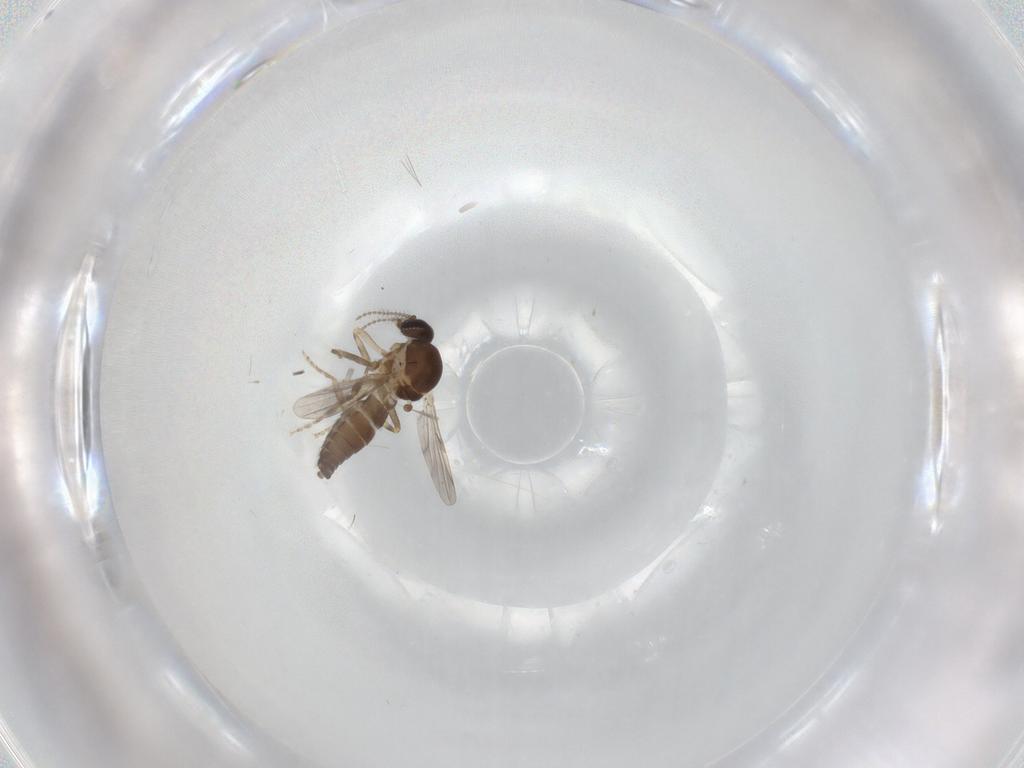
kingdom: Animalia
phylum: Arthropoda
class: Insecta
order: Diptera
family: Ceratopogonidae
